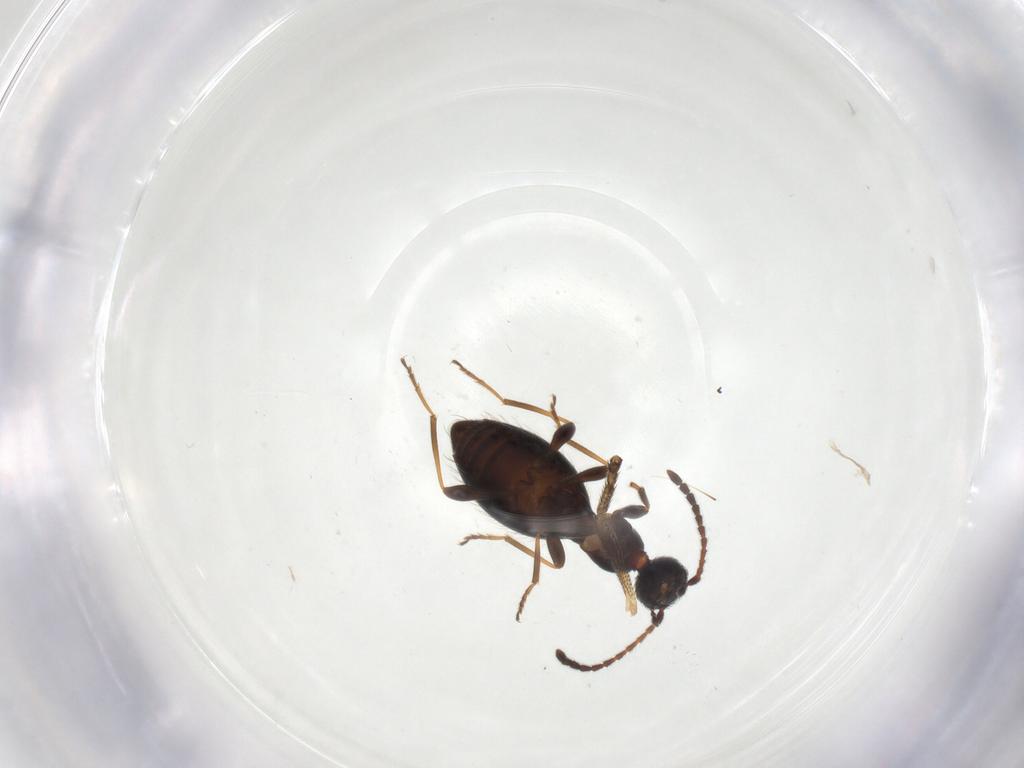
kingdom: Animalia
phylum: Arthropoda
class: Insecta
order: Coleoptera
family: Anthicidae
